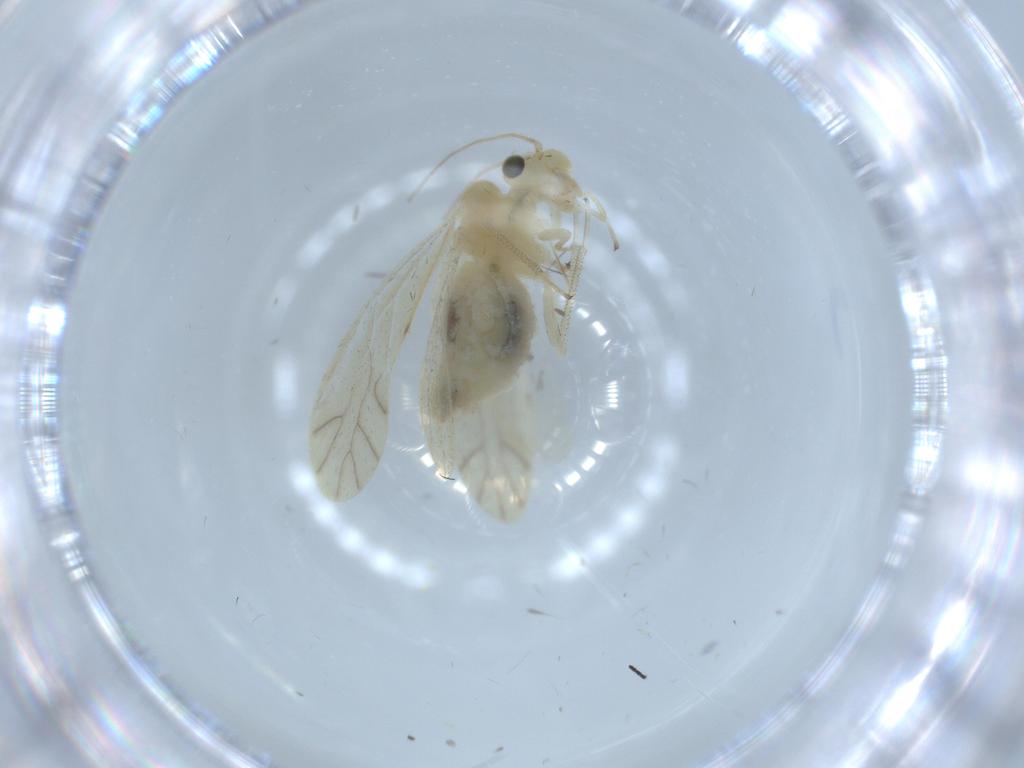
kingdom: Animalia
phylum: Arthropoda
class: Insecta
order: Psocodea
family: Caeciliusidae
